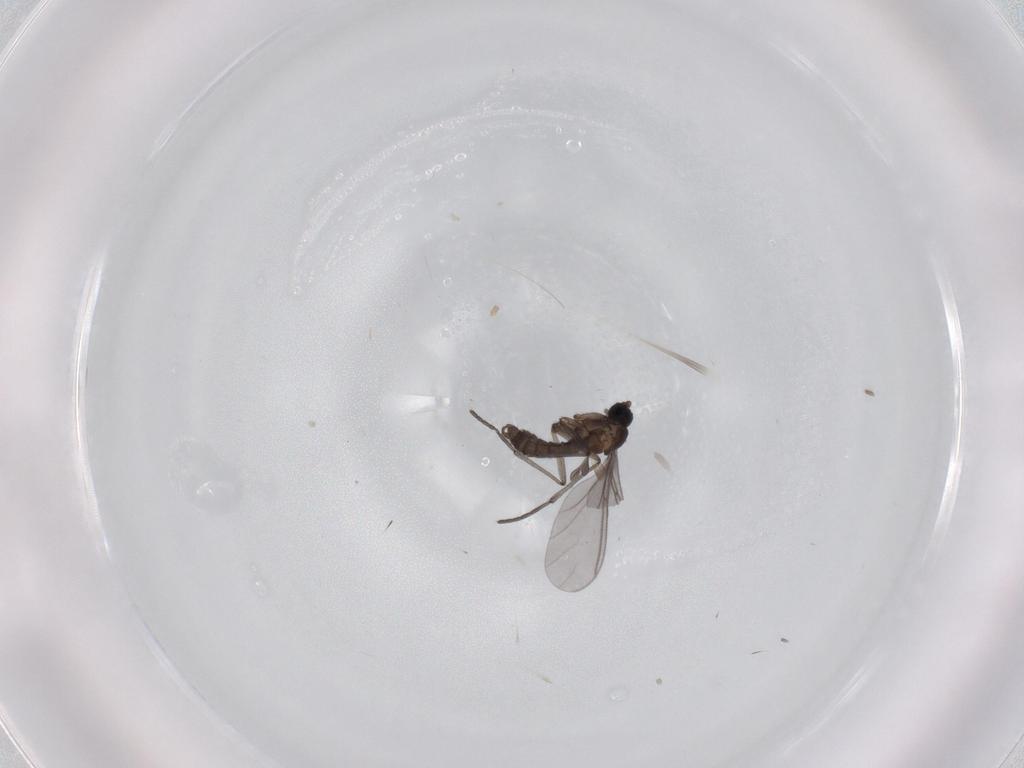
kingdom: Animalia
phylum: Arthropoda
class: Insecta
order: Diptera
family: Sciaridae
